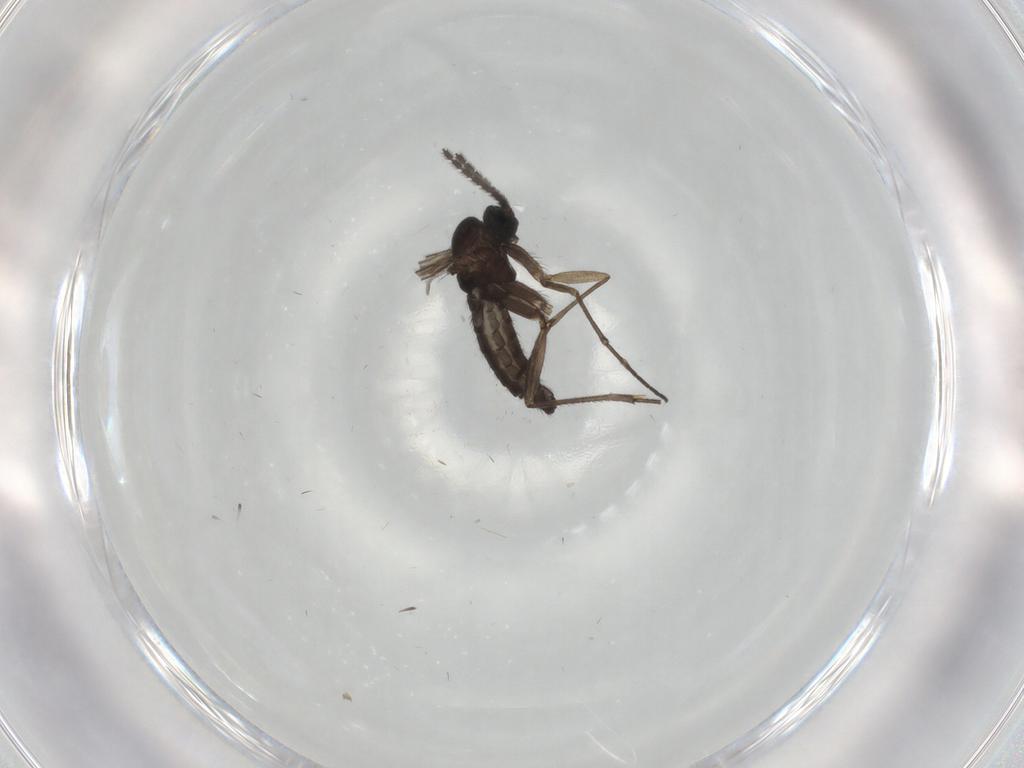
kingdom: Animalia
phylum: Arthropoda
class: Insecta
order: Diptera
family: Sciaridae
